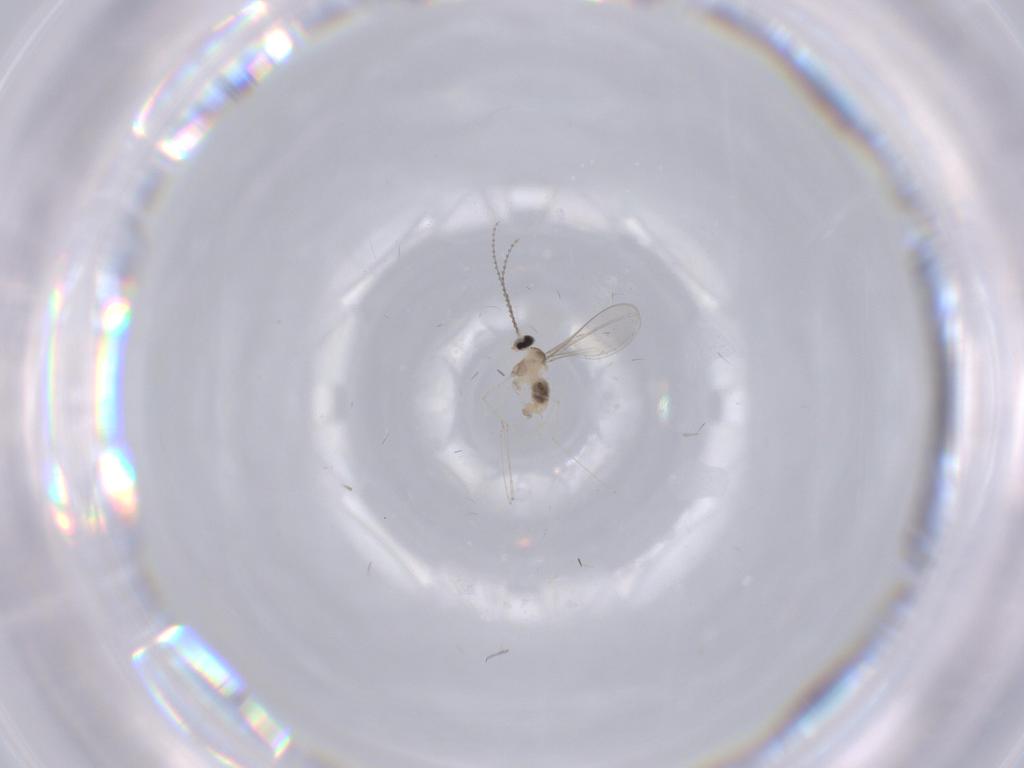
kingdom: Animalia
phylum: Arthropoda
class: Insecta
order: Diptera
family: Cecidomyiidae
